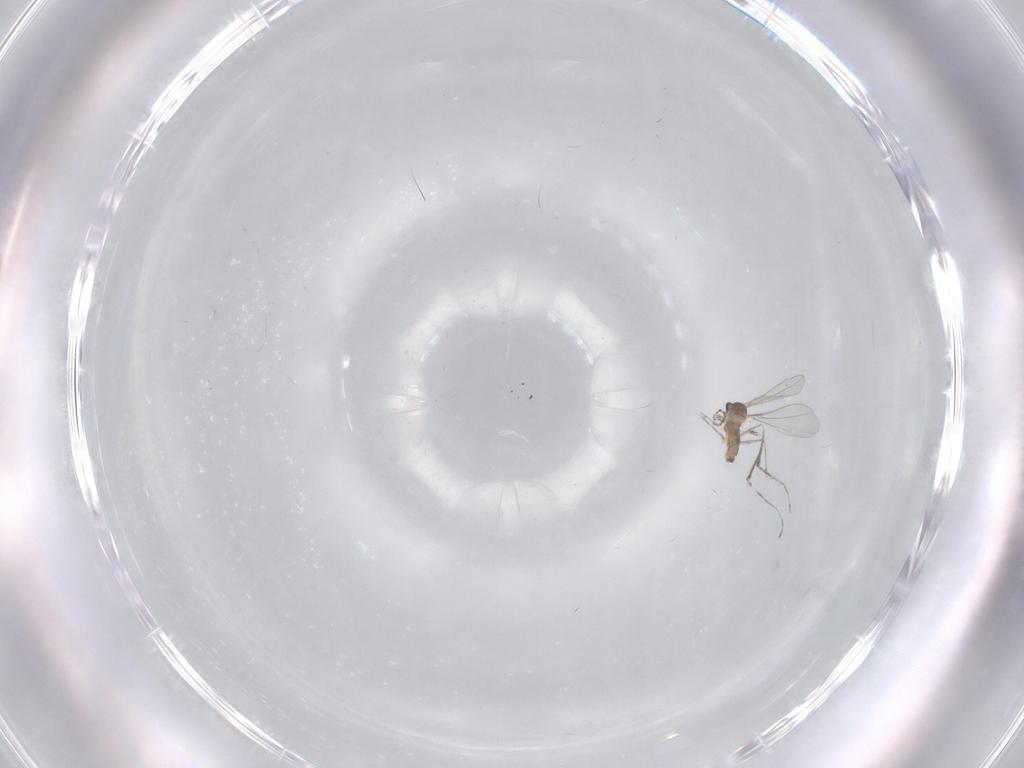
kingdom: Animalia
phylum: Arthropoda
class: Insecta
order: Diptera
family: Cecidomyiidae
